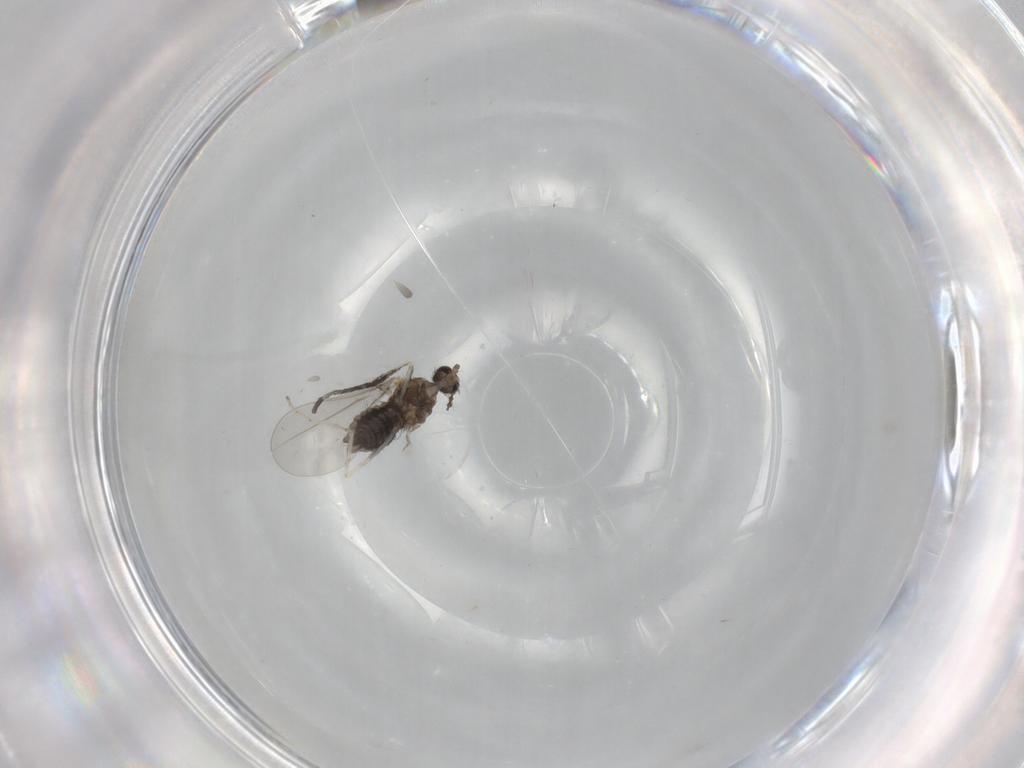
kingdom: Animalia
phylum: Arthropoda
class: Insecta
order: Diptera
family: Cecidomyiidae
